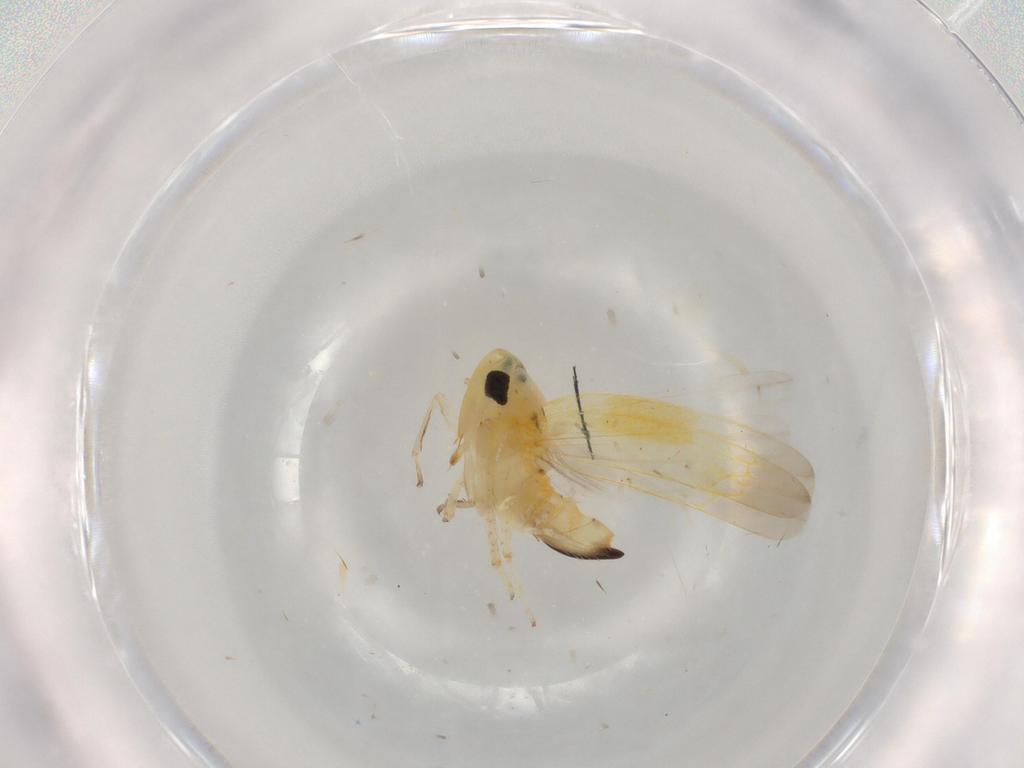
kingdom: Animalia
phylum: Arthropoda
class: Insecta
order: Hemiptera
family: Cicadellidae
